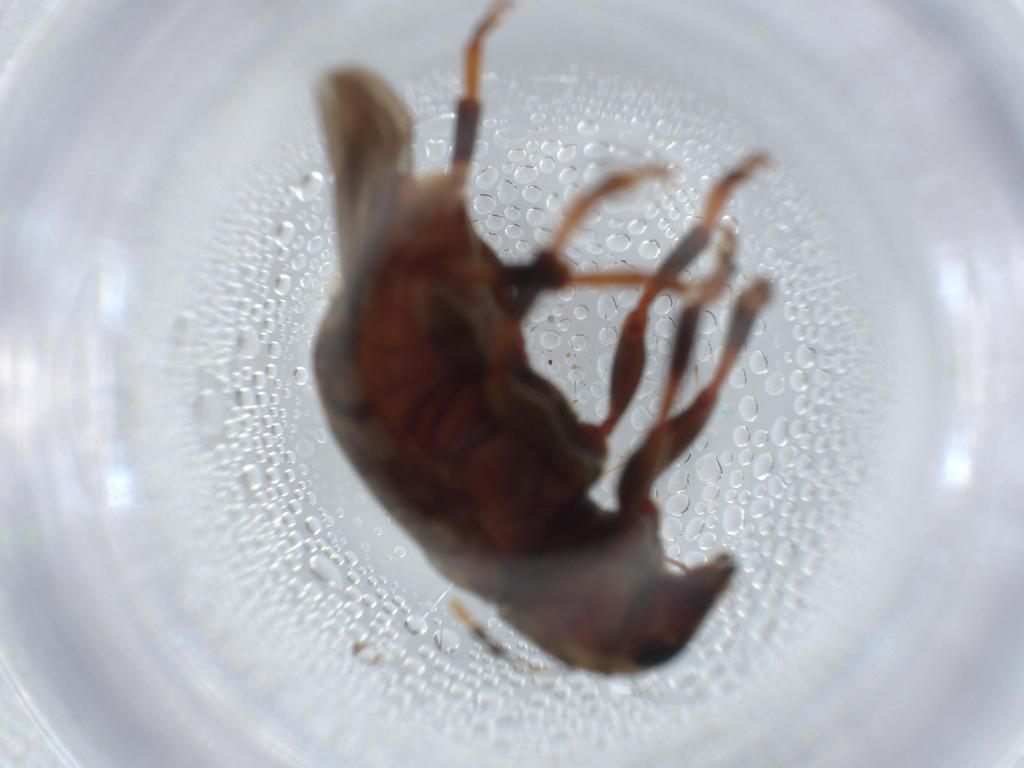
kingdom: Animalia
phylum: Arthropoda
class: Insecta
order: Coleoptera
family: Anthribidae
